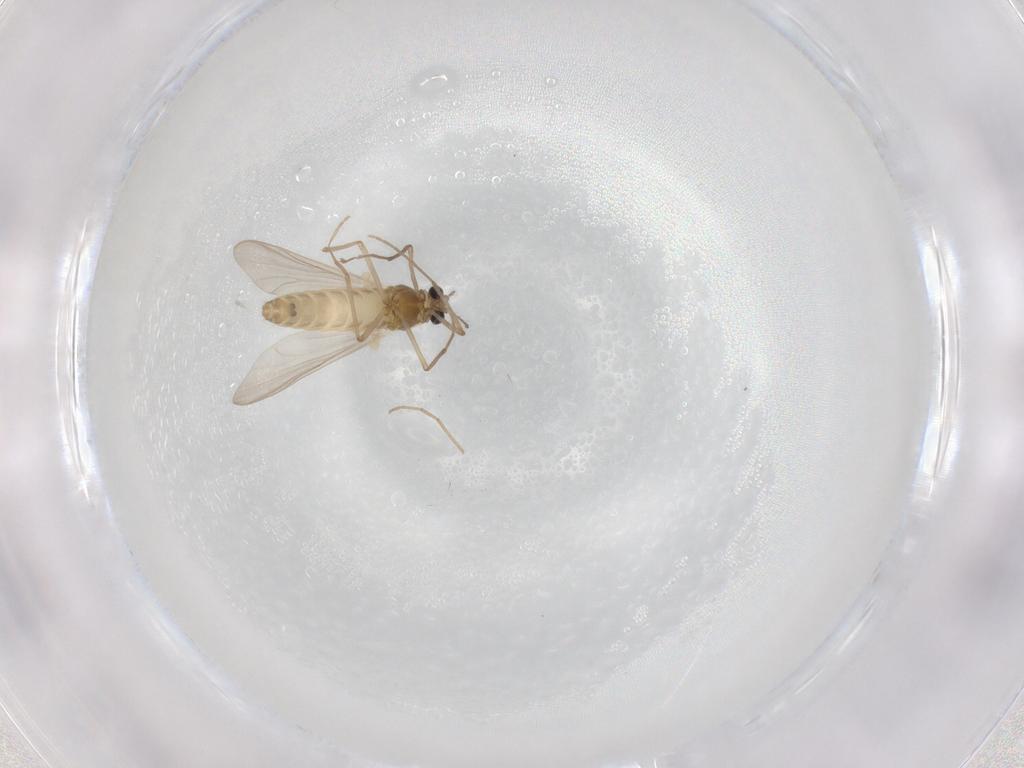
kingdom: Animalia
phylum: Arthropoda
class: Insecta
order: Diptera
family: Chironomidae
